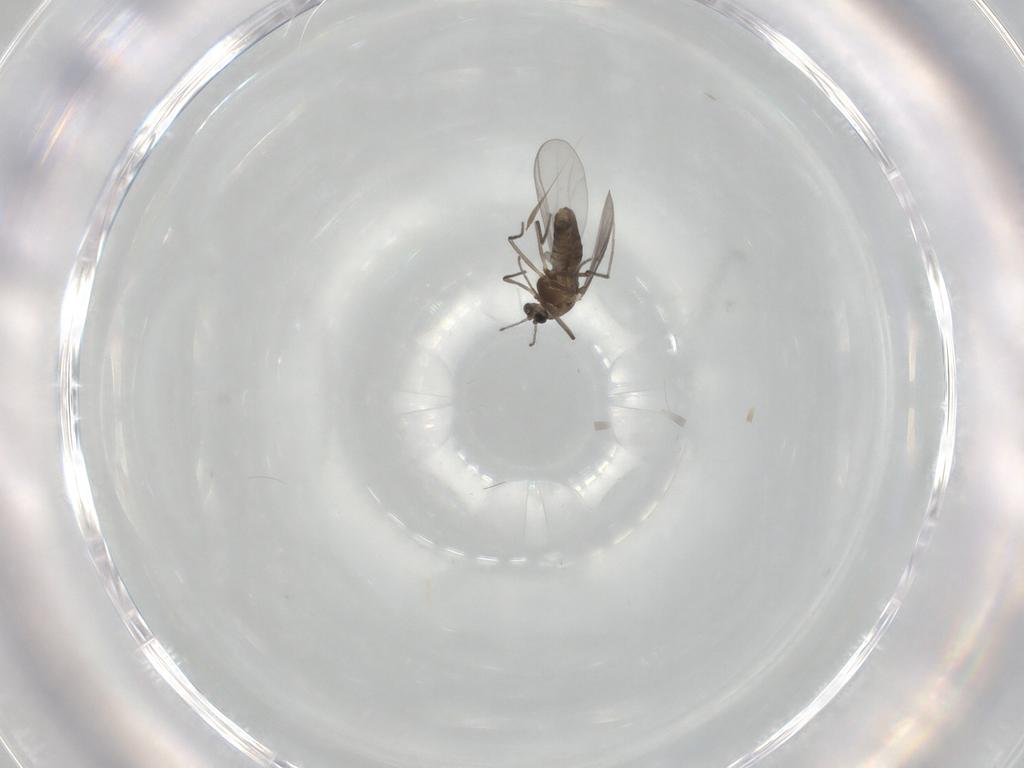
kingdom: Animalia
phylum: Arthropoda
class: Insecta
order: Diptera
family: Chironomidae
